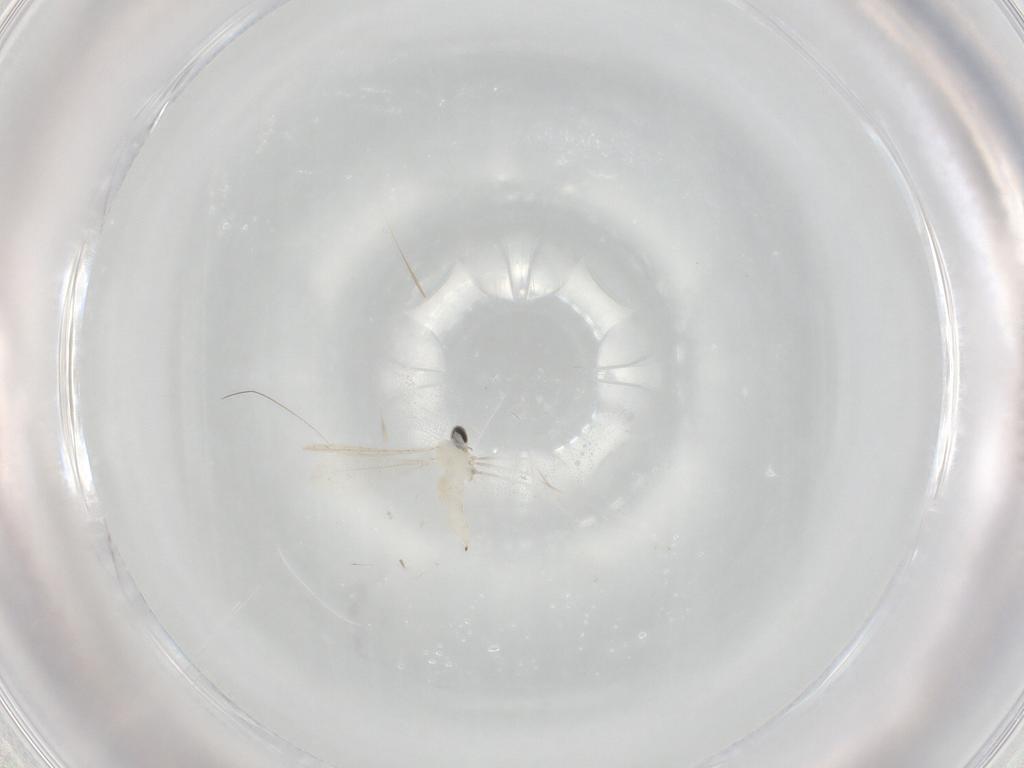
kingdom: Animalia
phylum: Arthropoda
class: Insecta
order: Diptera
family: Cecidomyiidae
